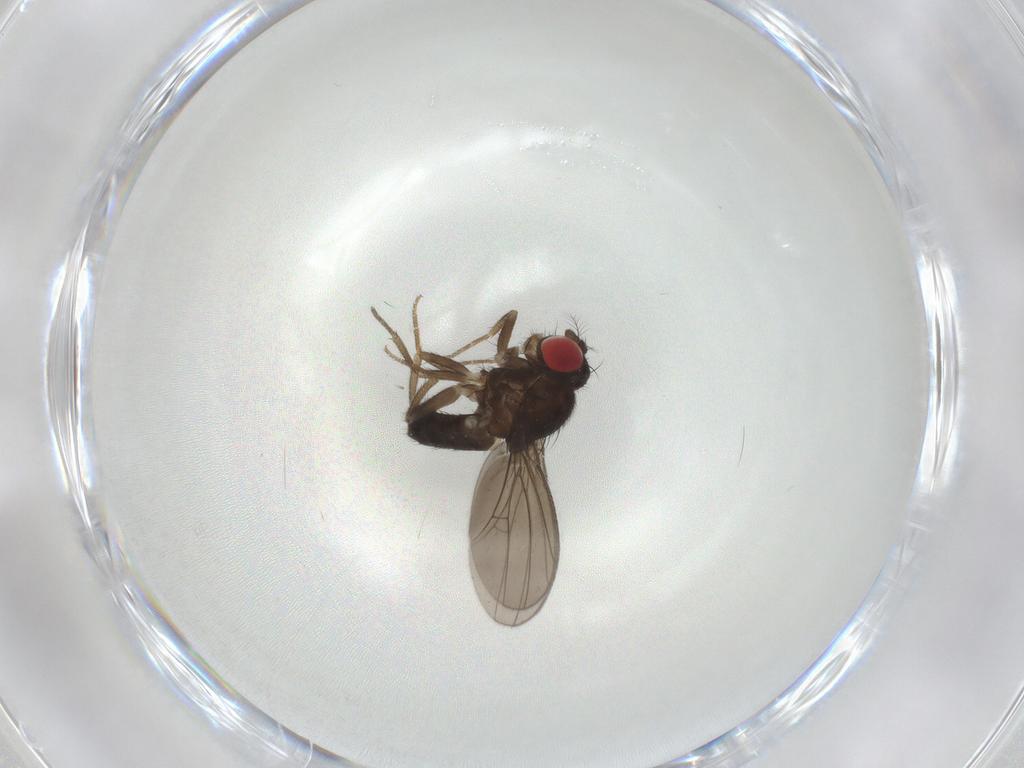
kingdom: Animalia
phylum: Arthropoda
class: Insecta
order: Diptera
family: Drosophilidae
